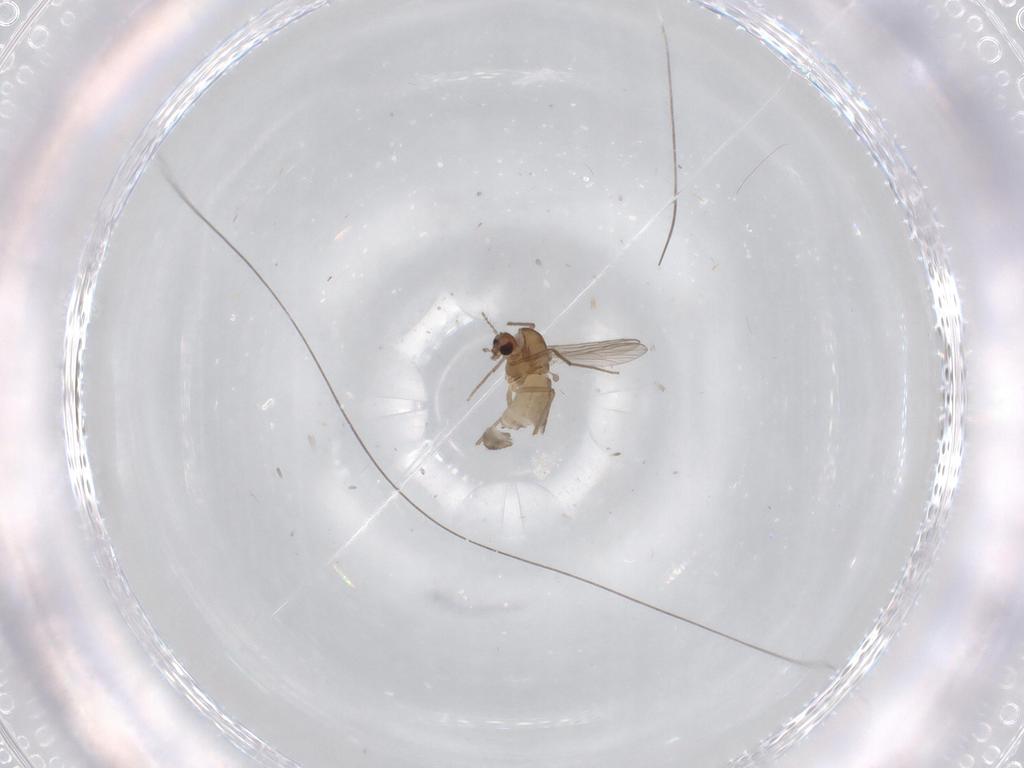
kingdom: Animalia
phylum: Arthropoda
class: Insecta
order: Diptera
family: Chironomidae
